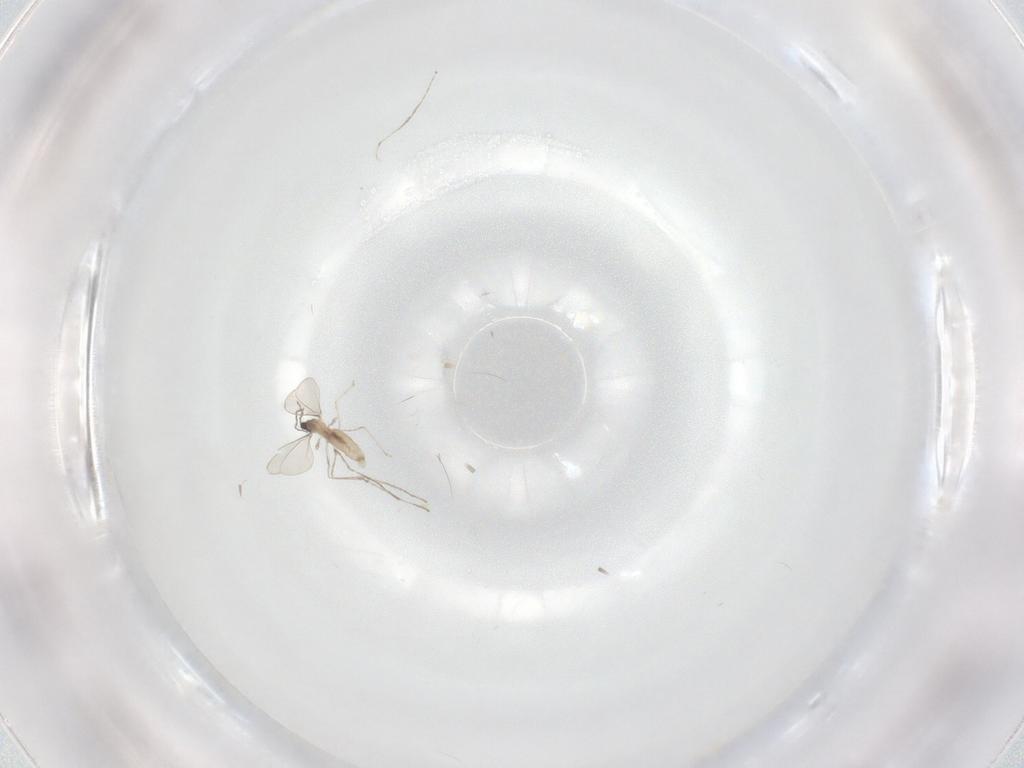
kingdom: Animalia
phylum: Arthropoda
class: Insecta
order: Diptera
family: Cecidomyiidae
